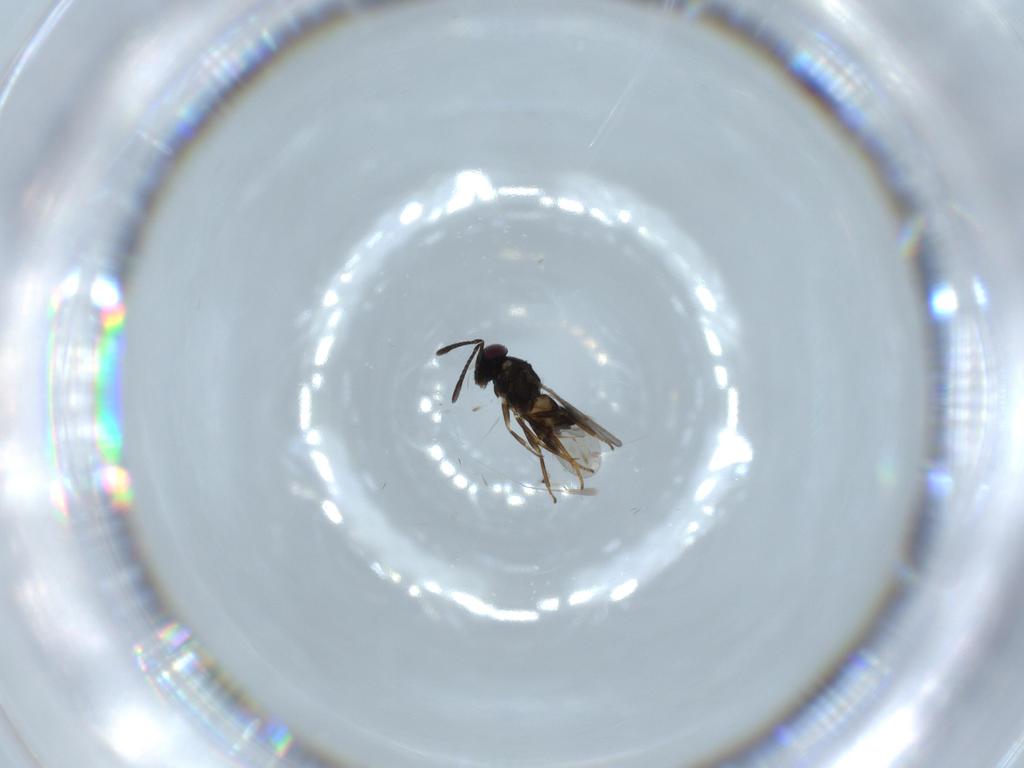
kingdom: Animalia
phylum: Arthropoda
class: Insecta
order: Hymenoptera
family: Encyrtidae
